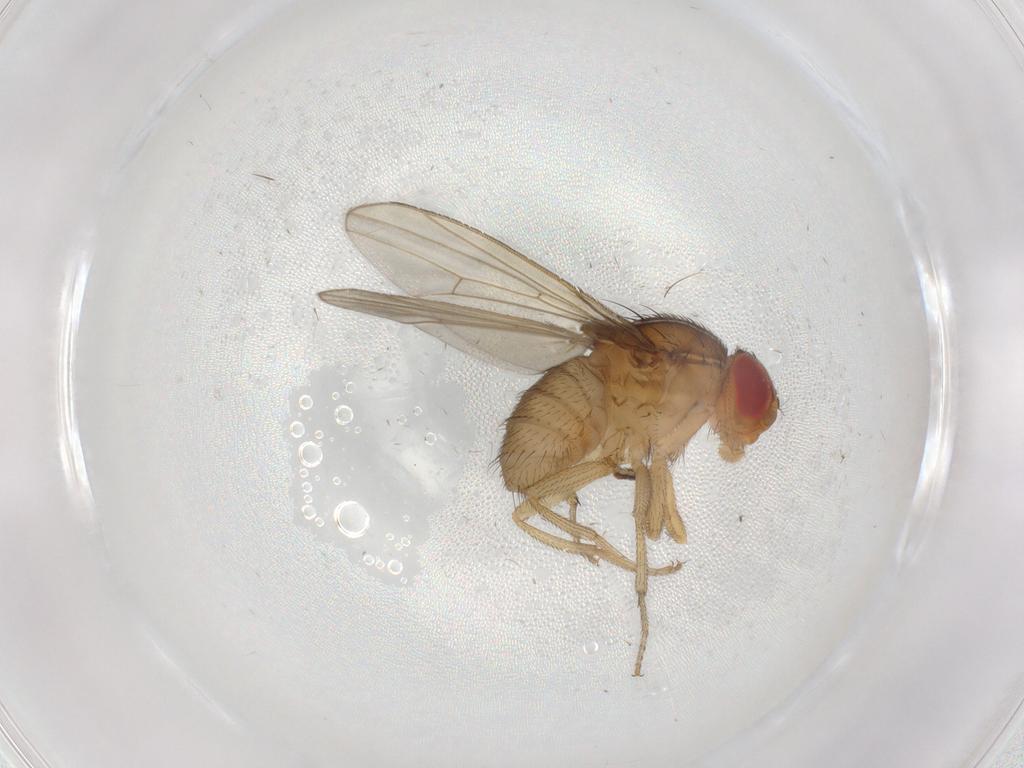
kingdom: Animalia
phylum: Arthropoda
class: Insecta
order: Diptera
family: Drosophilidae
